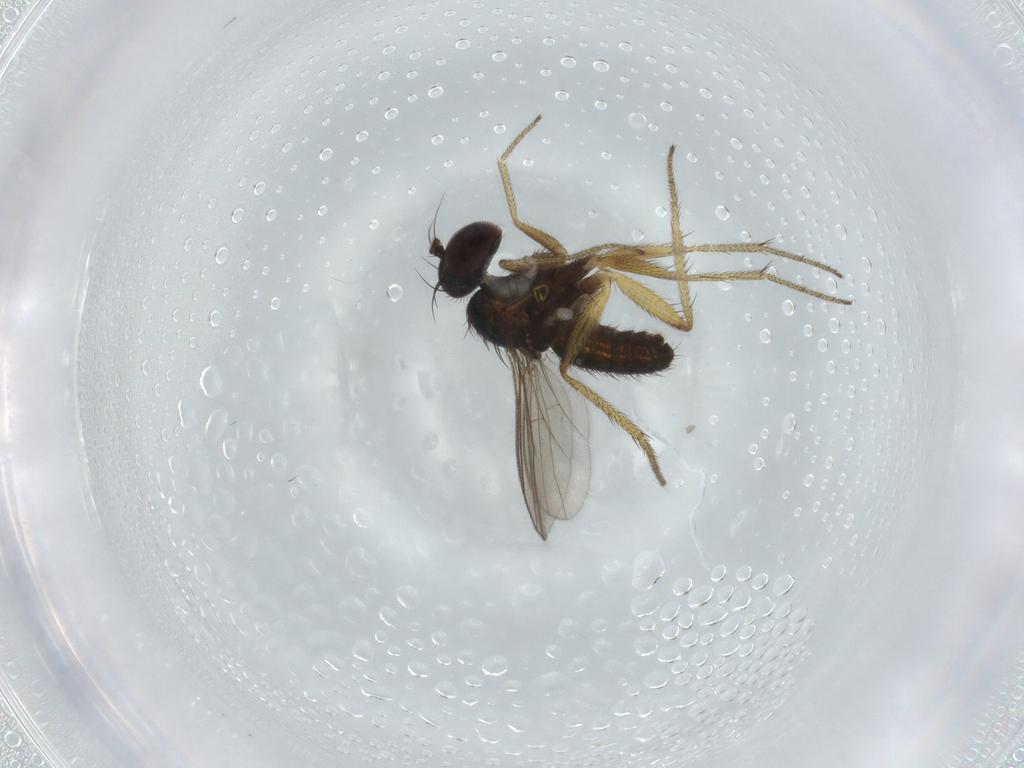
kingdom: Animalia
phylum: Arthropoda
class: Insecta
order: Diptera
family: Dolichopodidae
